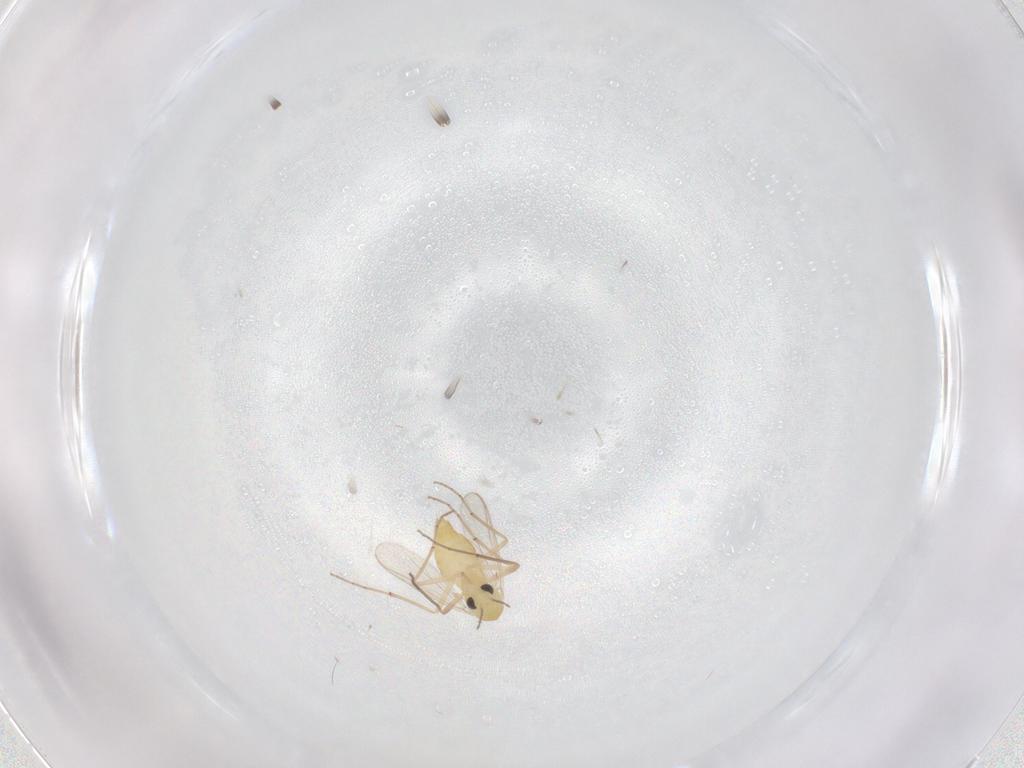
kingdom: Animalia
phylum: Arthropoda
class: Insecta
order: Diptera
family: Chironomidae
